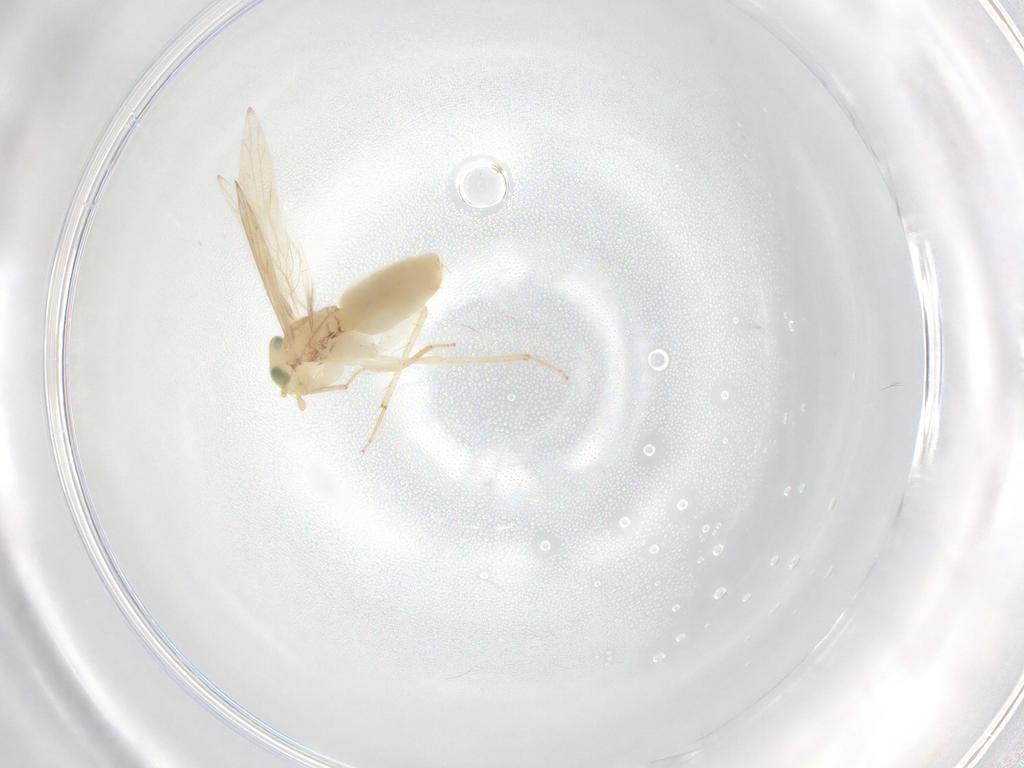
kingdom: Animalia
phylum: Arthropoda
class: Insecta
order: Psocodea
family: Lepidopsocidae
